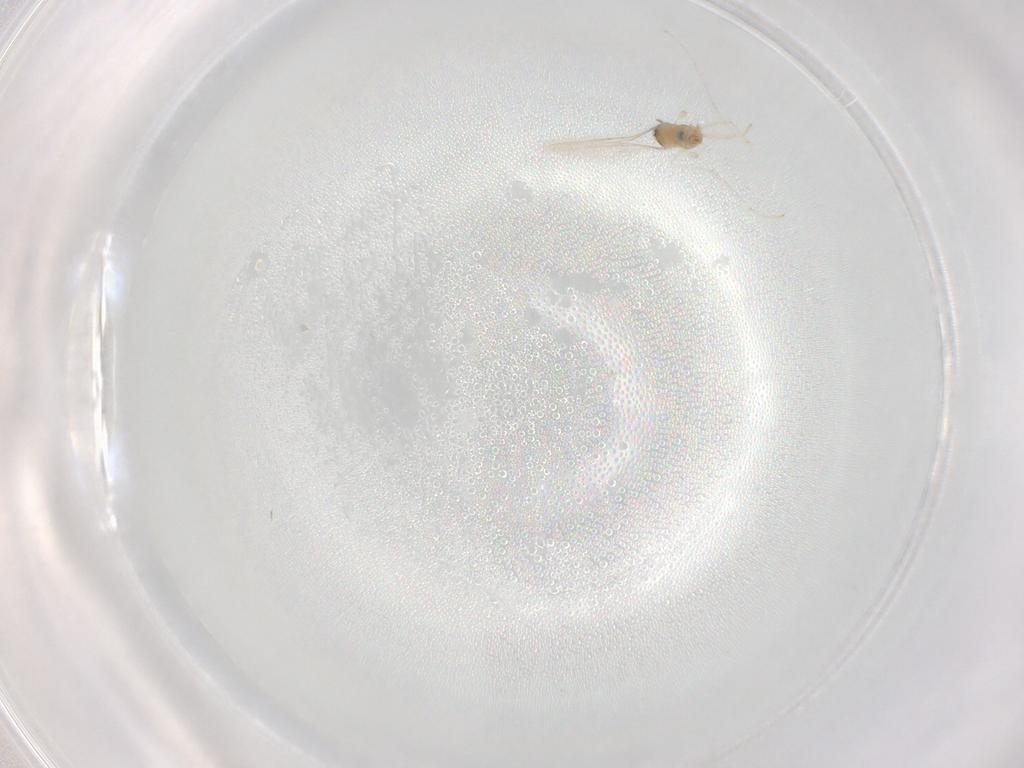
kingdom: Animalia
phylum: Arthropoda
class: Insecta
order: Diptera
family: Cecidomyiidae
